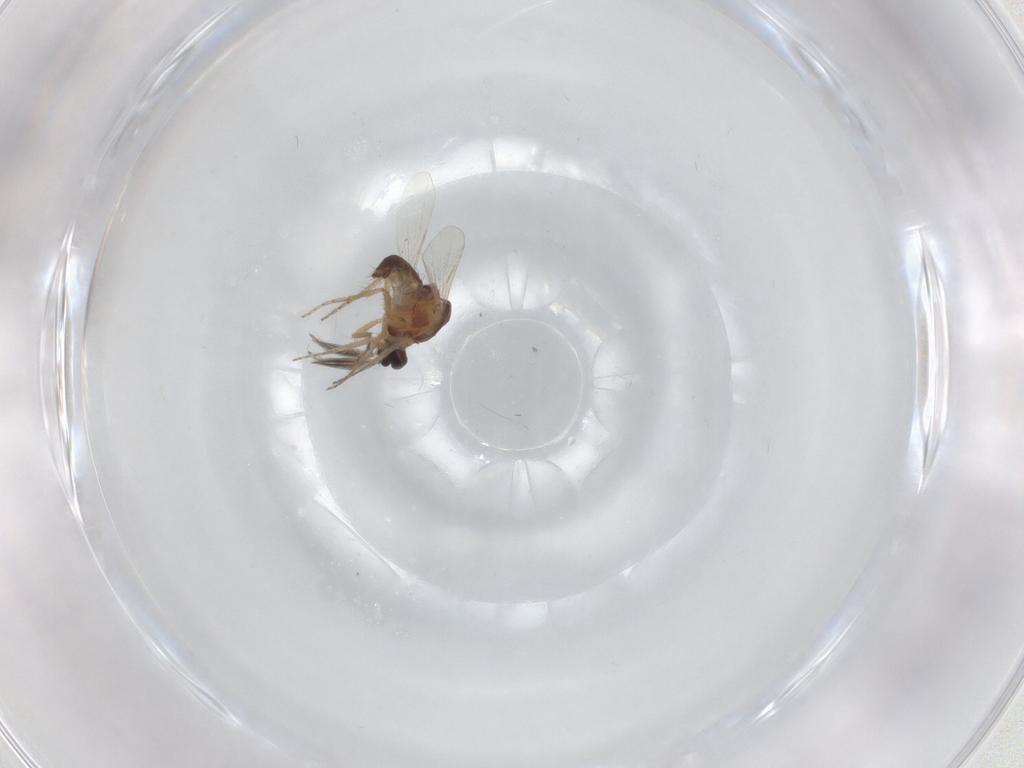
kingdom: Animalia
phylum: Arthropoda
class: Insecta
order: Diptera
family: Ceratopogonidae
